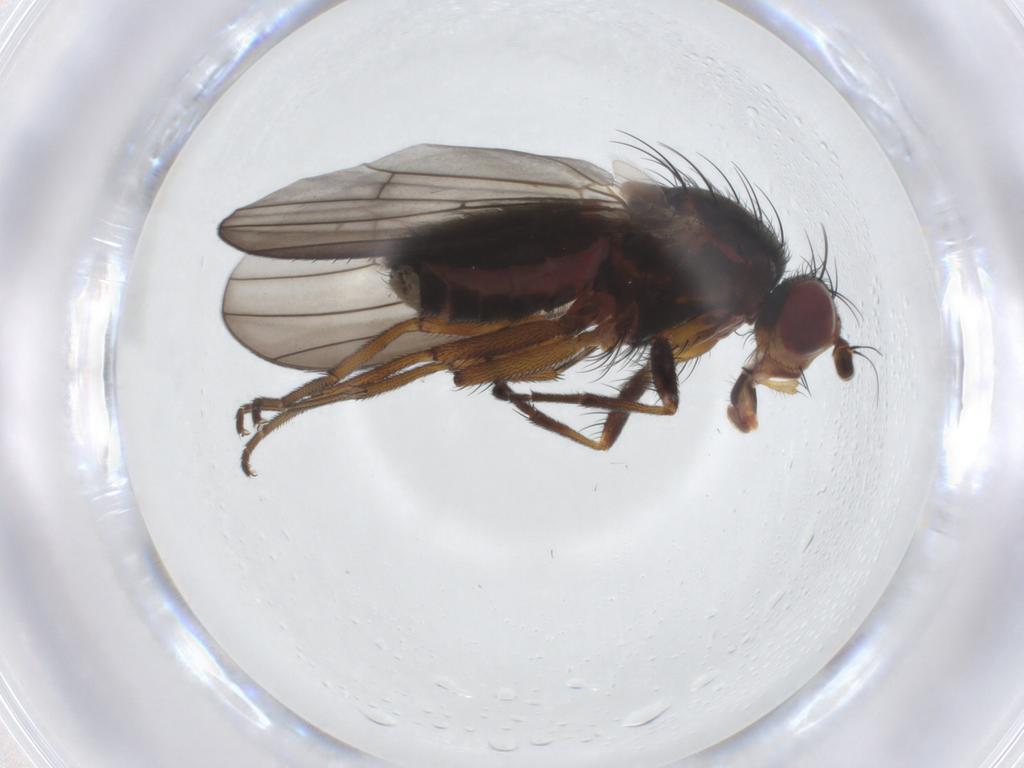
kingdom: Animalia
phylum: Arthropoda
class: Insecta
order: Diptera
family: Heleomyzidae
